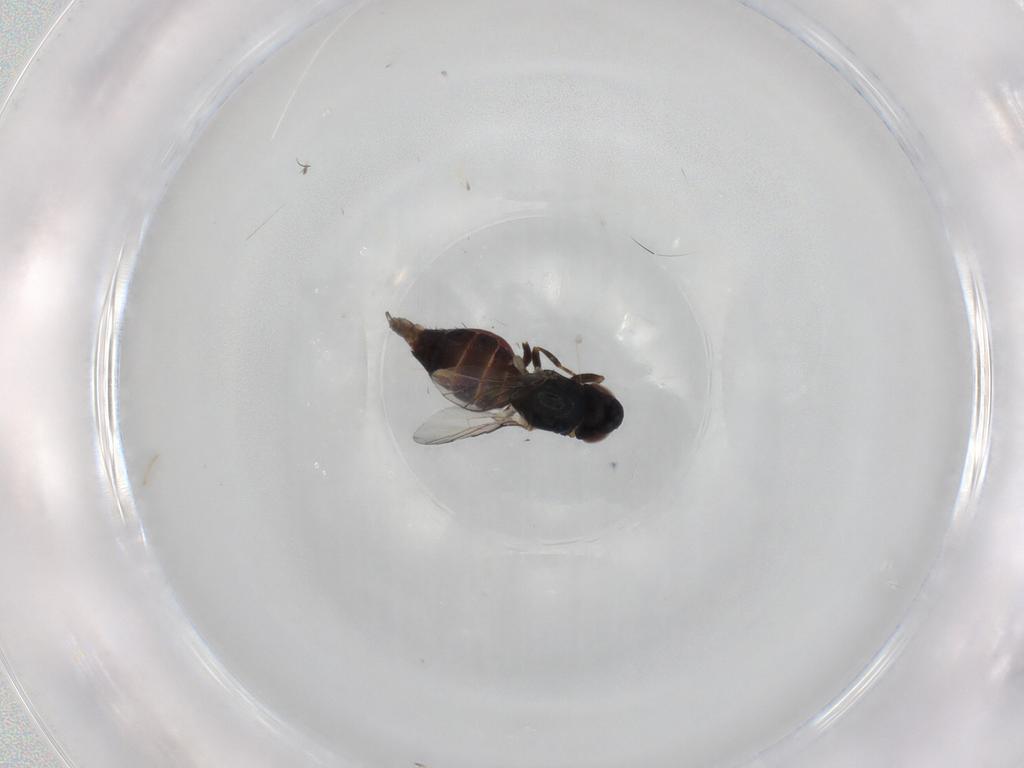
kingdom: Animalia
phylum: Arthropoda
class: Insecta
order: Diptera
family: Chloropidae
